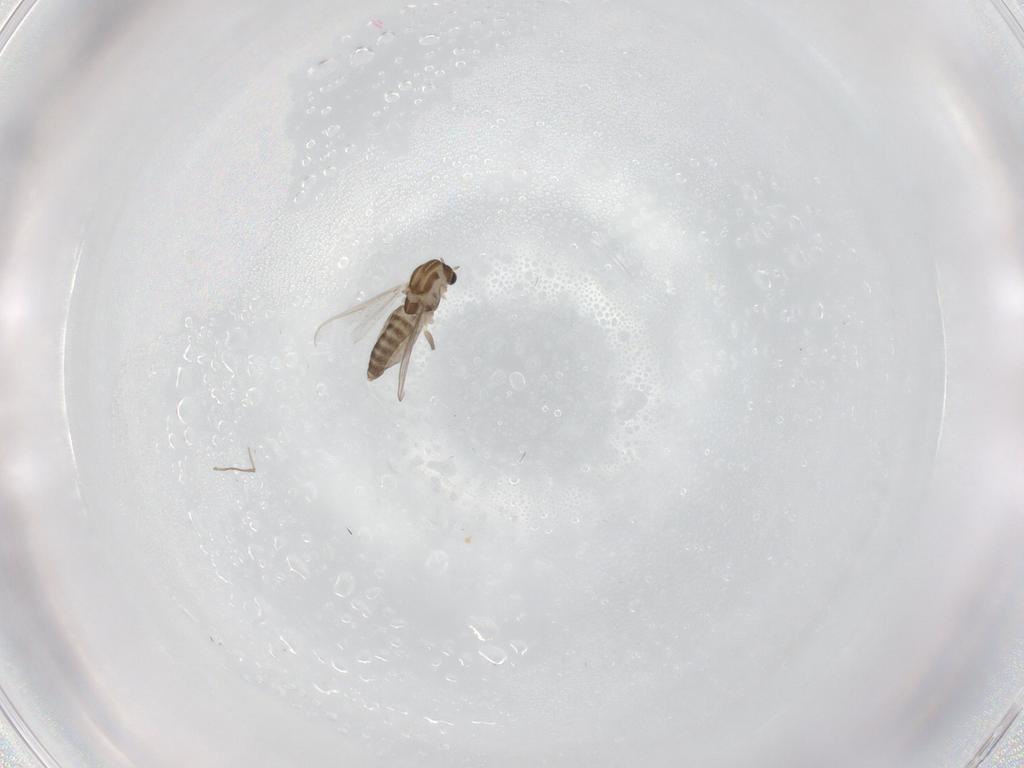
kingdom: Animalia
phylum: Arthropoda
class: Insecta
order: Diptera
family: Chironomidae
